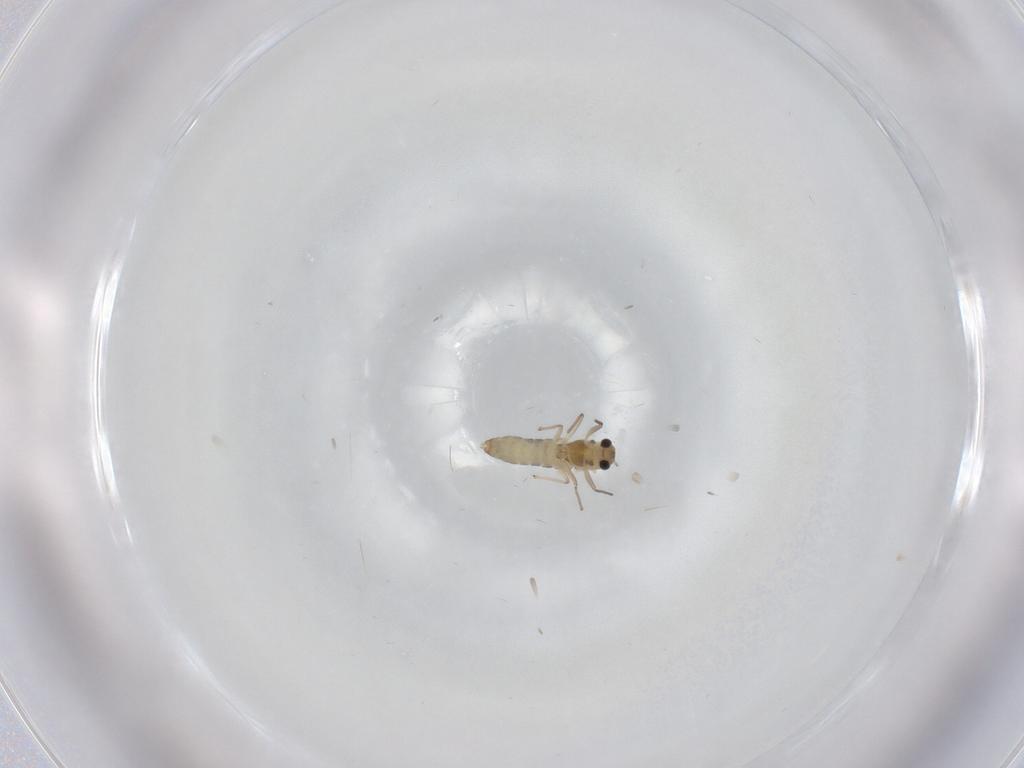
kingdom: Animalia
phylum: Arthropoda
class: Insecta
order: Diptera
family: Chironomidae
